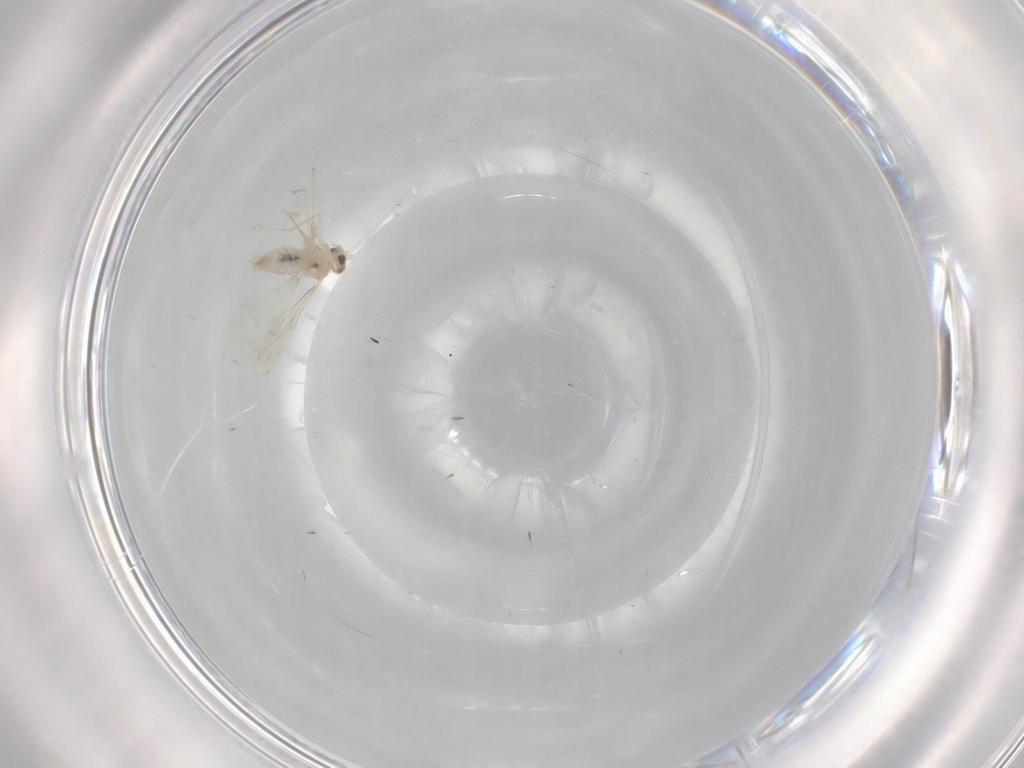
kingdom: Animalia
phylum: Arthropoda
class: Insecta
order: Diptera
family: Cecidomyiidae
